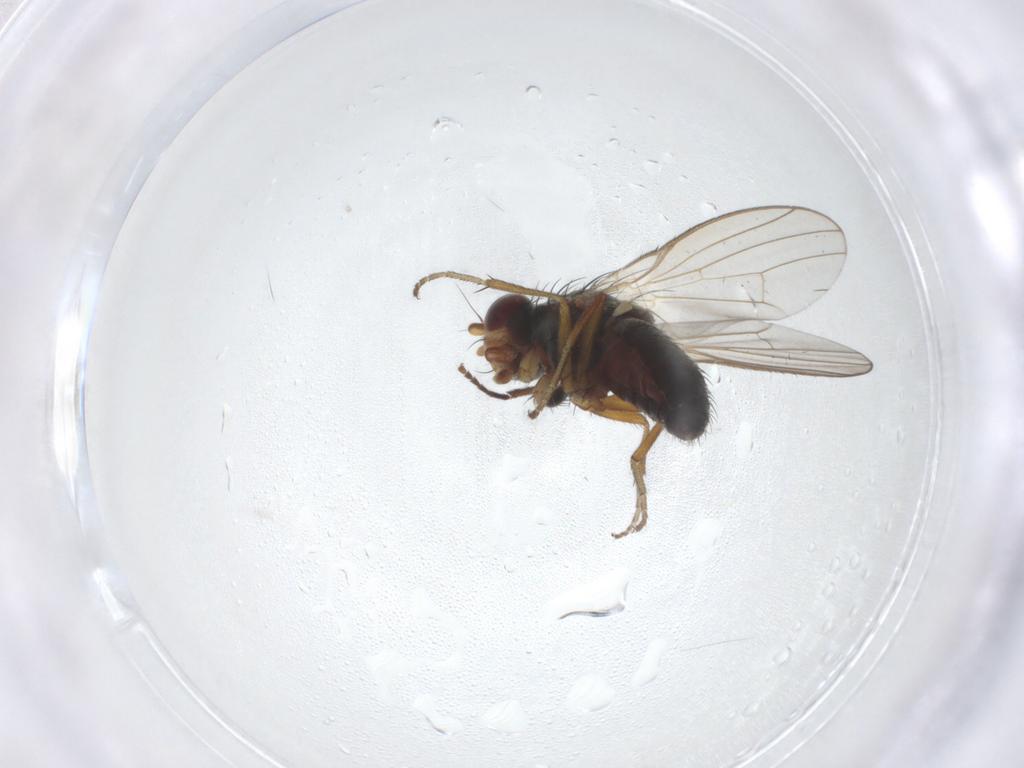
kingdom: Animalia
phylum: Arthropoda
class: Insecta
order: Diptera
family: Heleomyzidae
